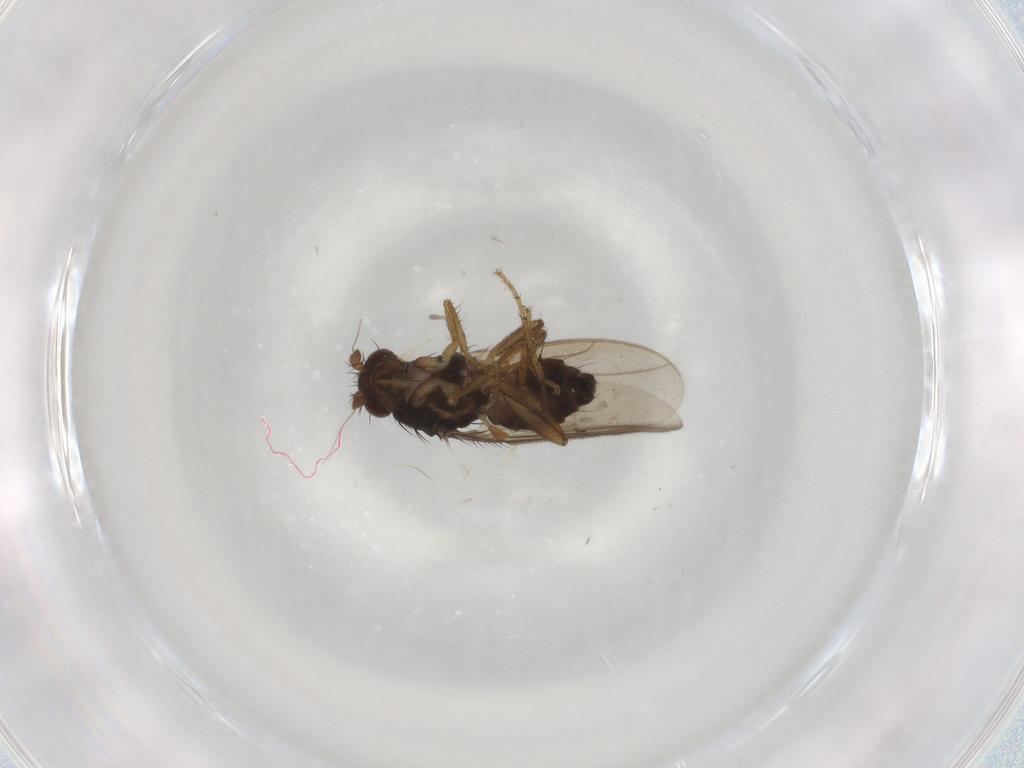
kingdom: Animalia
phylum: Arthropoda
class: Insecta
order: Diptera
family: Sphaeroceridae
